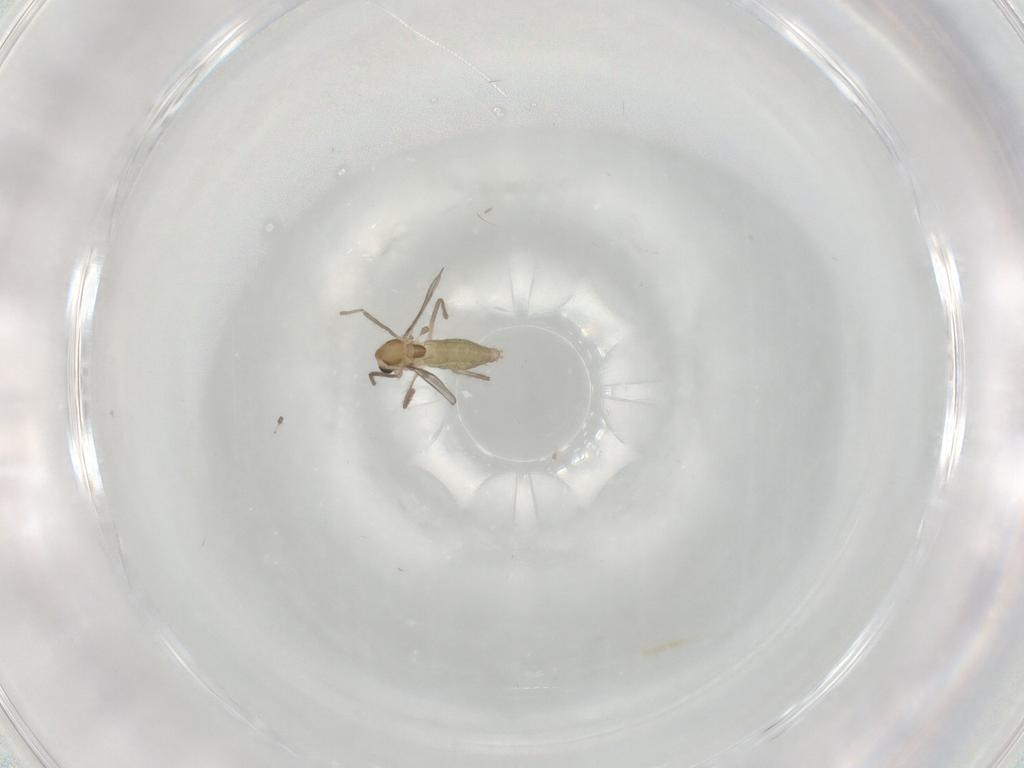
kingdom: Animalia
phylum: Arthropoda
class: Insecta
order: Diptera
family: Chironomidae
